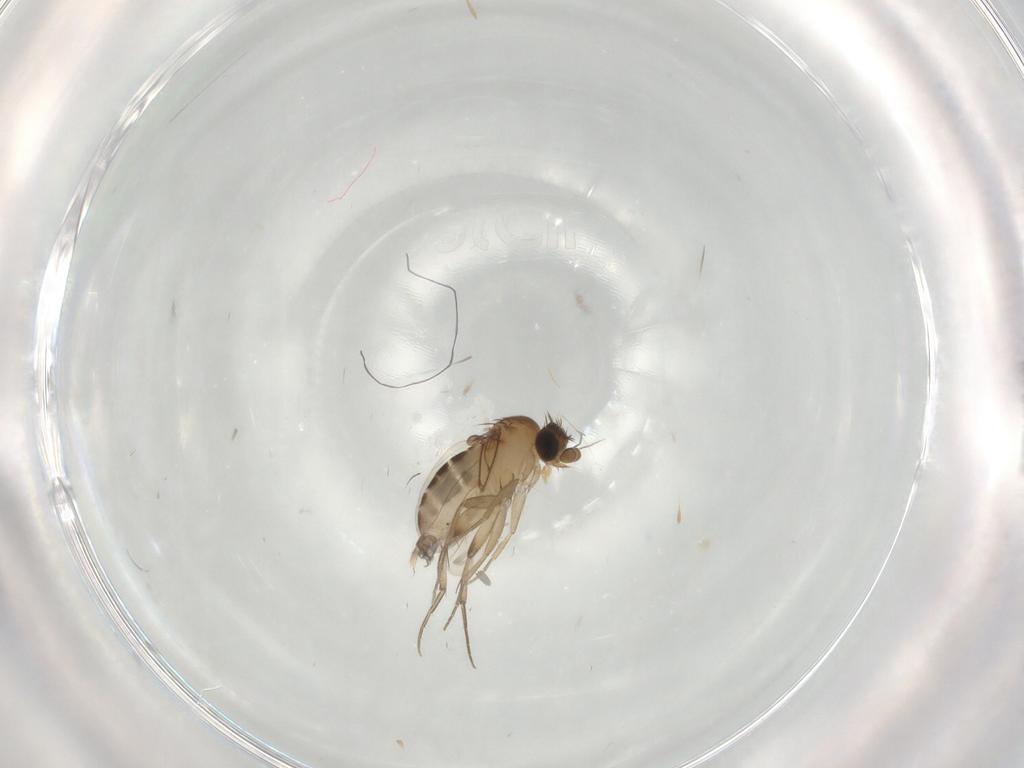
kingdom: Animalia
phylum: Arthropoda
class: Insecta
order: Diptera
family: Phoridae
